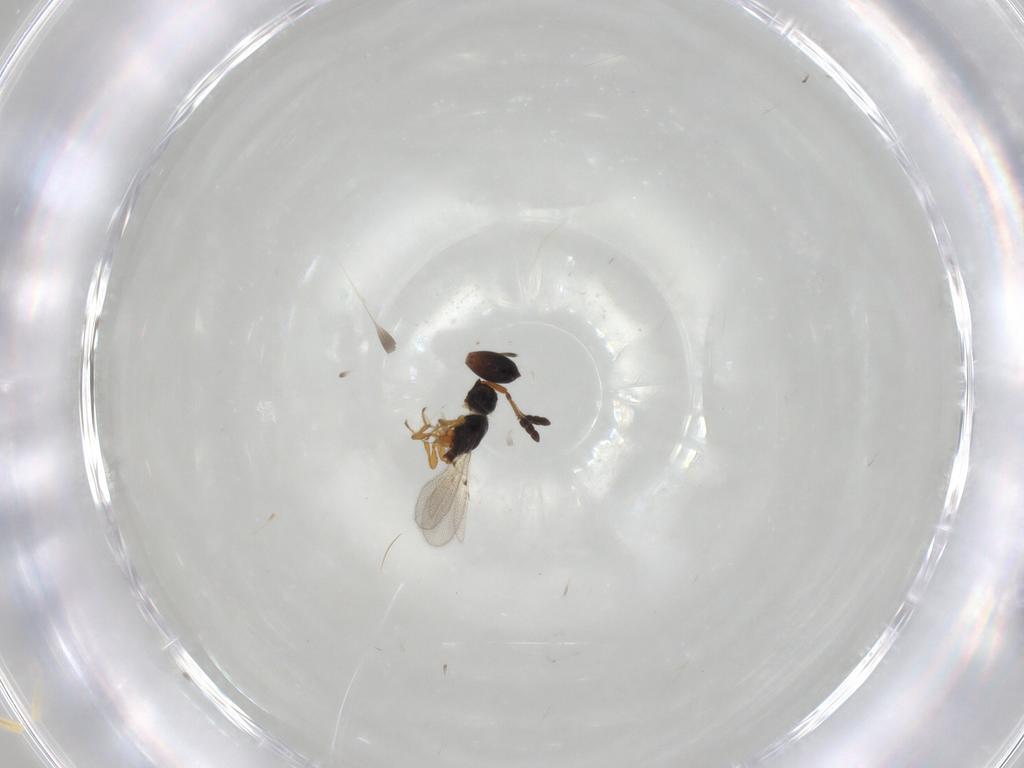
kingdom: Animalia
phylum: Arthropoda
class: Insecta
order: Hymenoptera
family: Diapriidae
